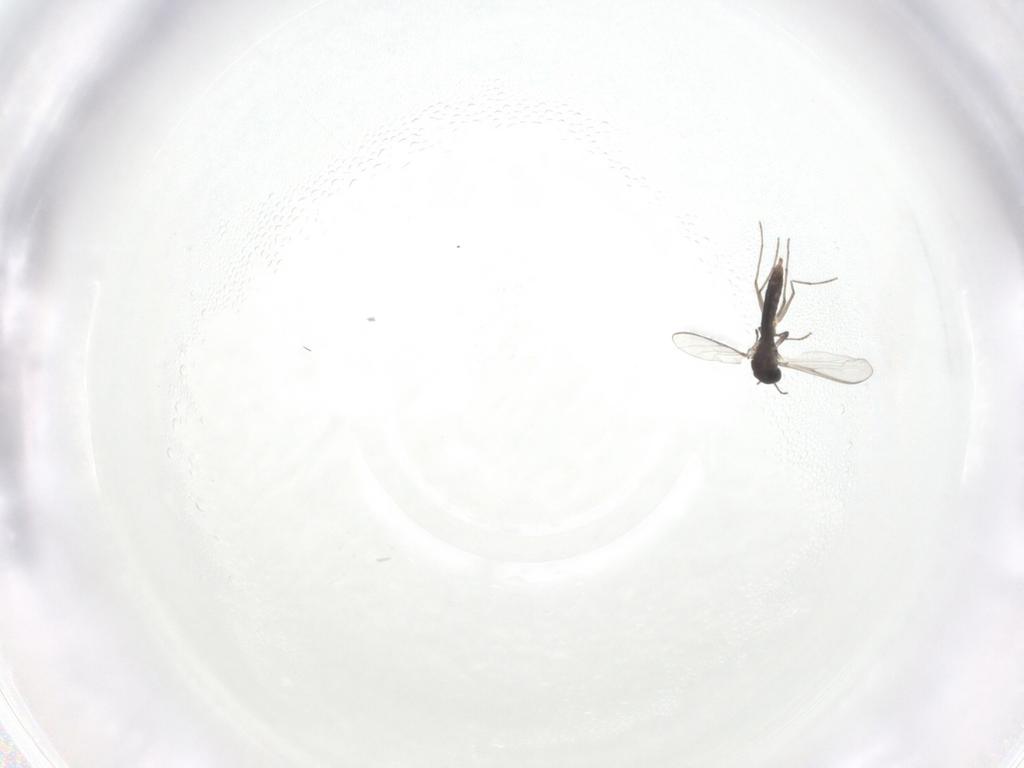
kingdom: Animalia
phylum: Arthropoda
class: Insecta
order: Diptera
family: Chironomidae
